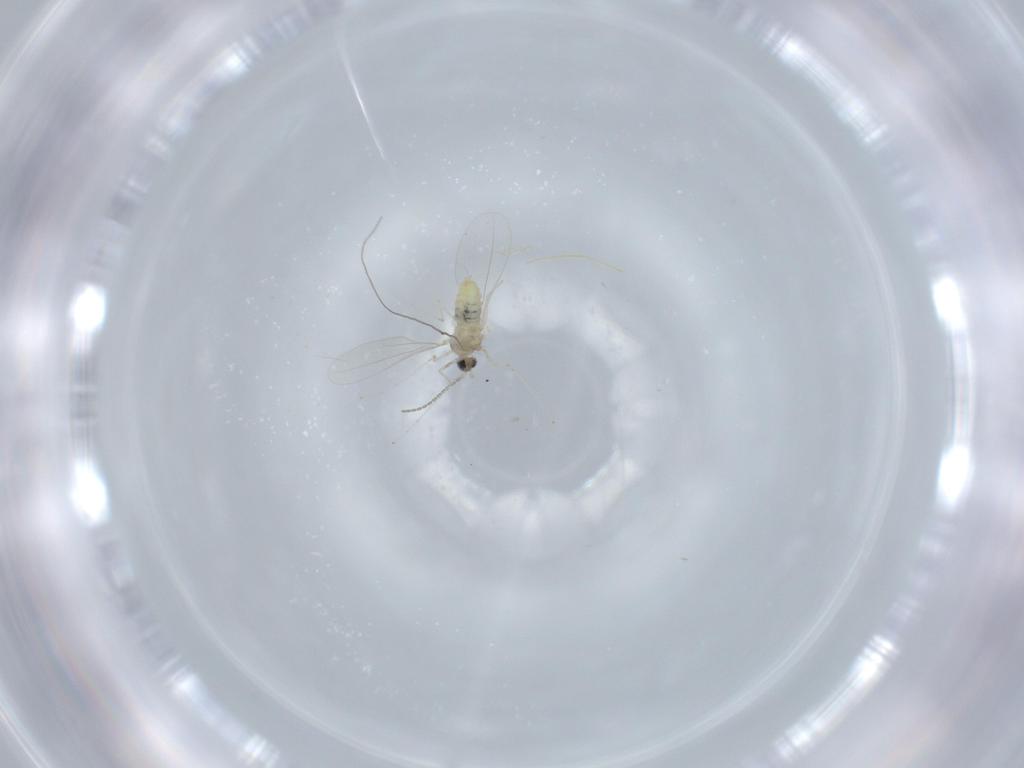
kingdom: Animalia
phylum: Arthropoda
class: Insecta
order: Diptera
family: Cecidomyiidae
